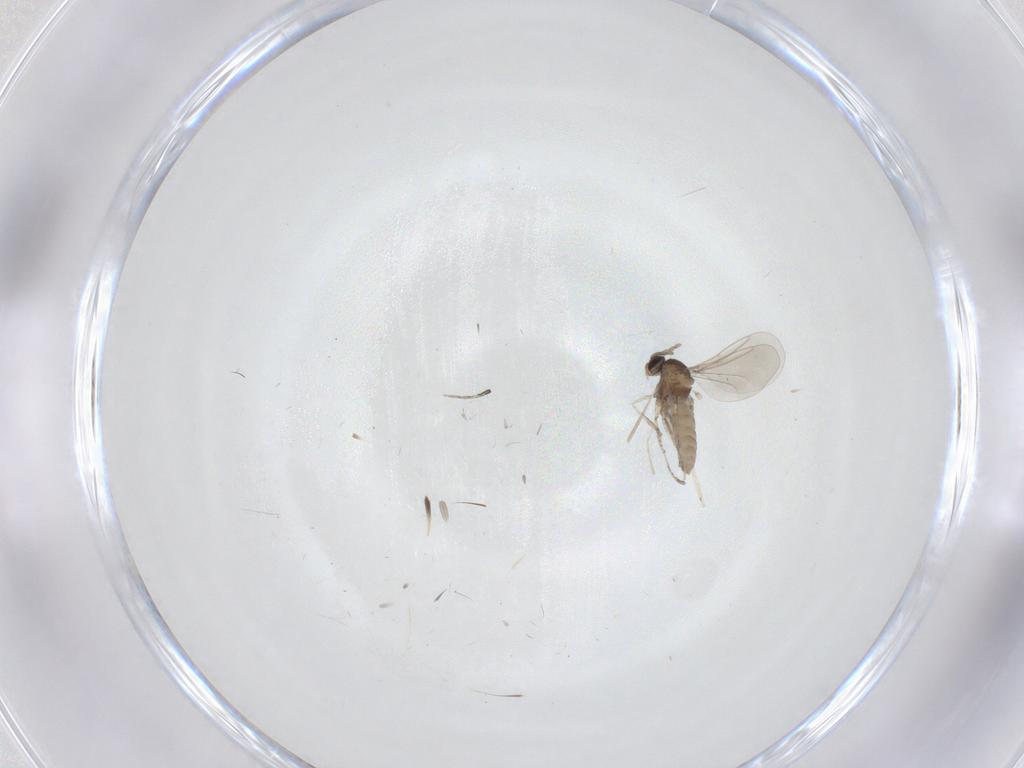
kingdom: Animalia
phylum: Arthropoda
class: Insecta
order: Diptera
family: Cecidomyiidae
